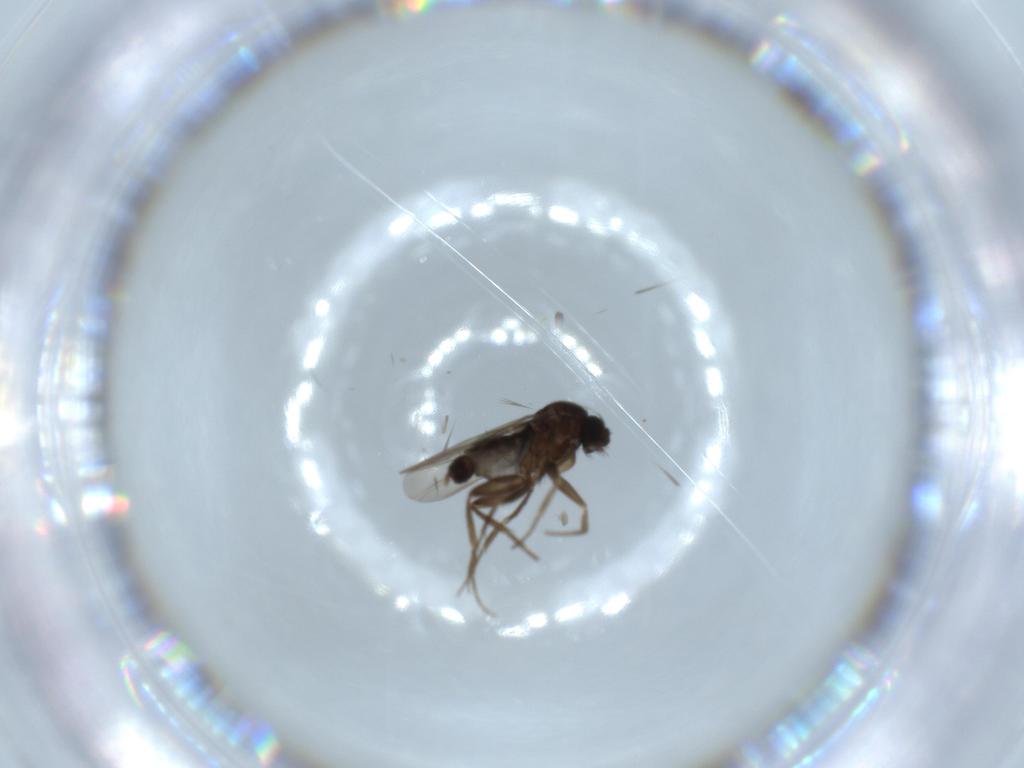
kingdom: Animalia
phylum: Arthropoda
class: Insecta
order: Diptera
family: Phoridae
